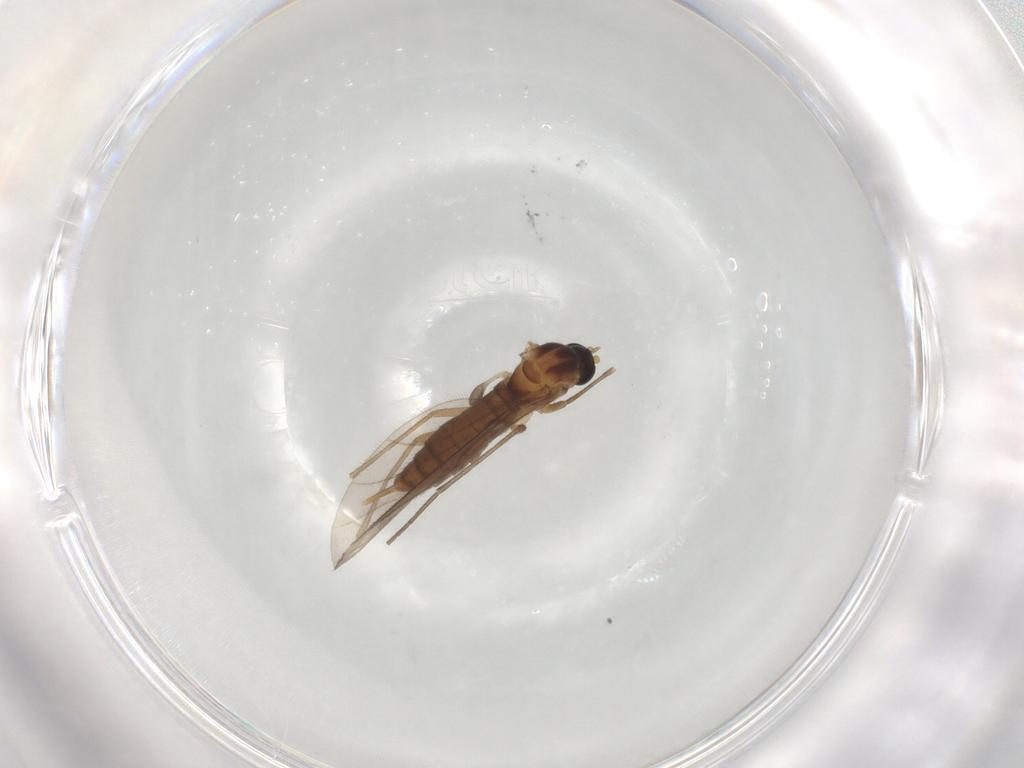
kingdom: Animalia
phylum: Arthropoda
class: Insecta
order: Diptera
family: Sciaridae
